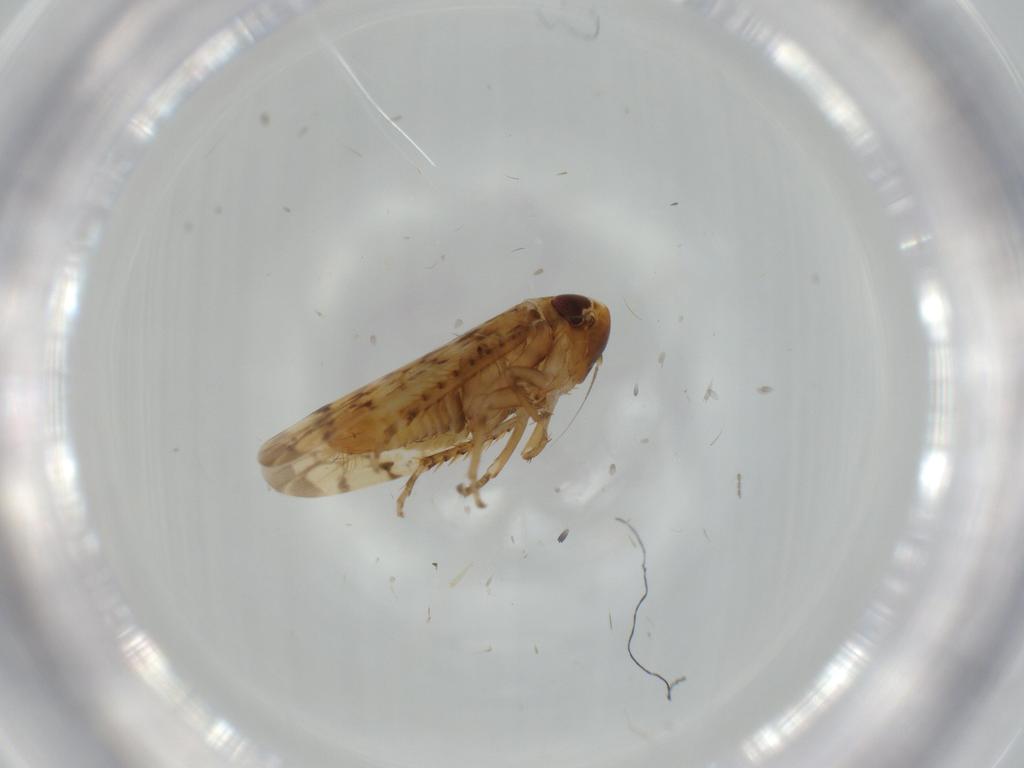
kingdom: Animalia
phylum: Arthropoda
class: Insecta
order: Hemiptera
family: Cicadellidae
